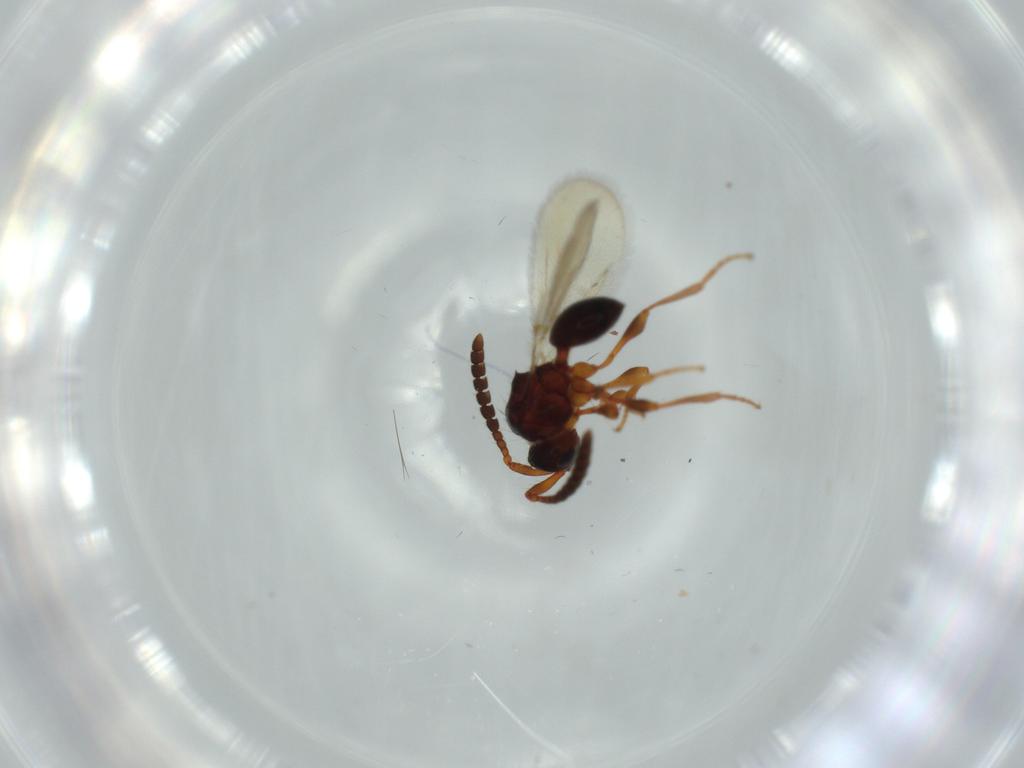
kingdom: Animalia
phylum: Arthropoda
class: Insecta
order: Hymenoptera
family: Diapriidae
